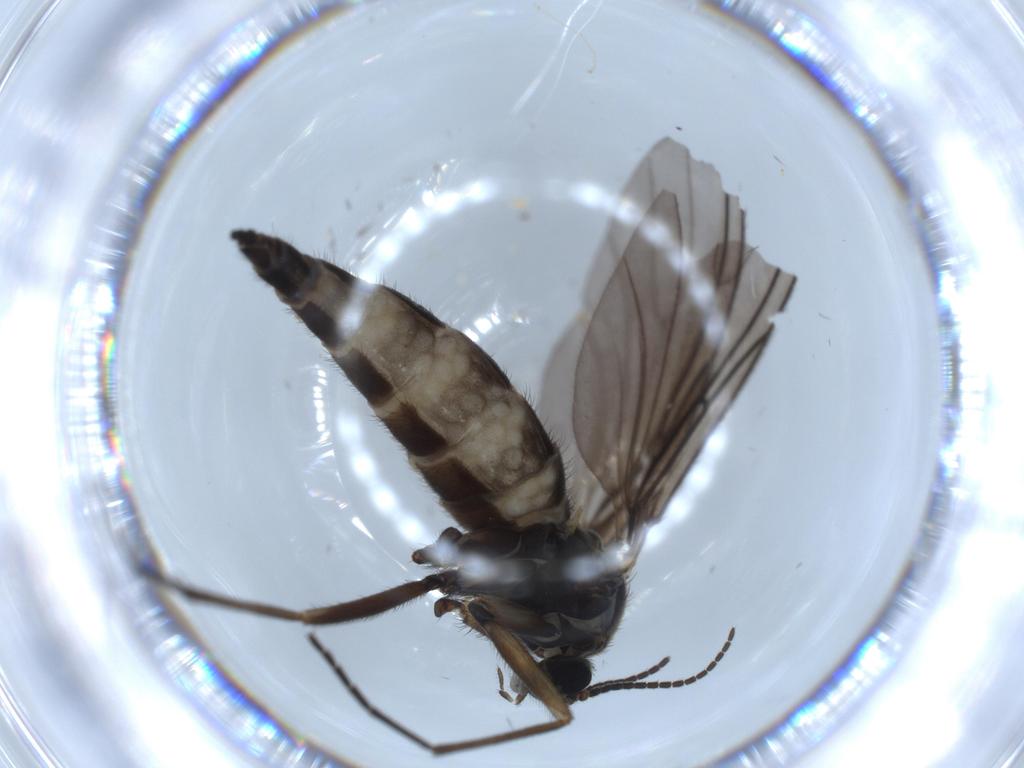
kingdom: Animalia
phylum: Arthropoda
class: Insecta
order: Diptera
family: Sciaridae
